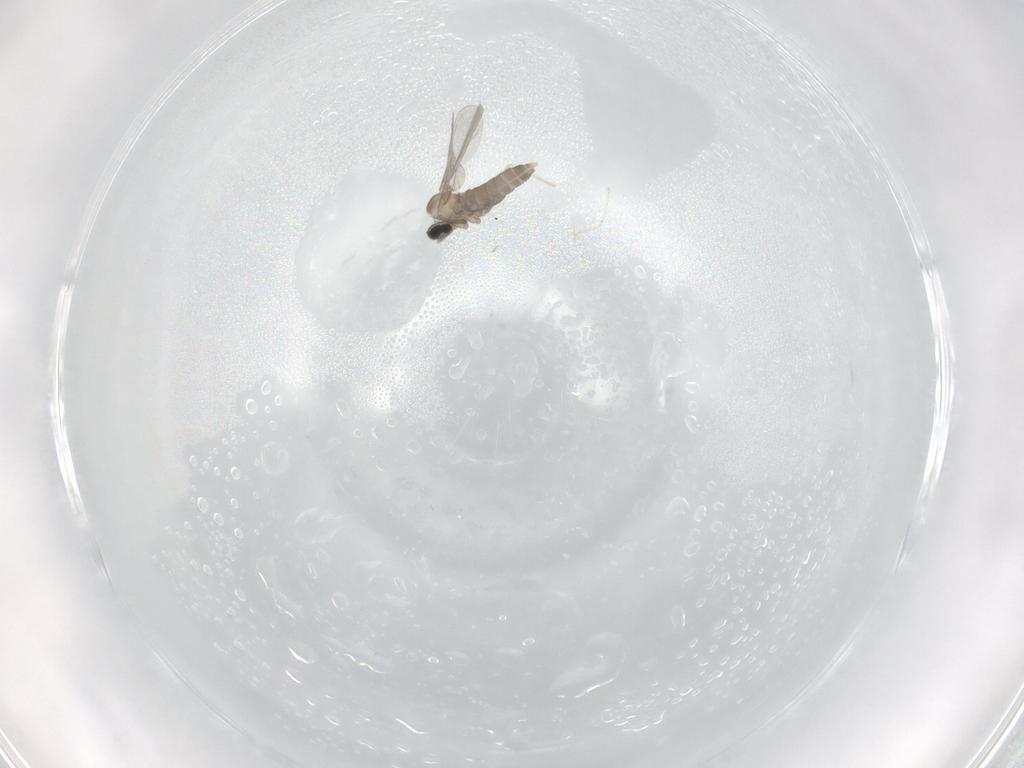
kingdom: Animalia
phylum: Arthropoda
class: Insecta
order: Diptera
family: Cecidomyiidae
